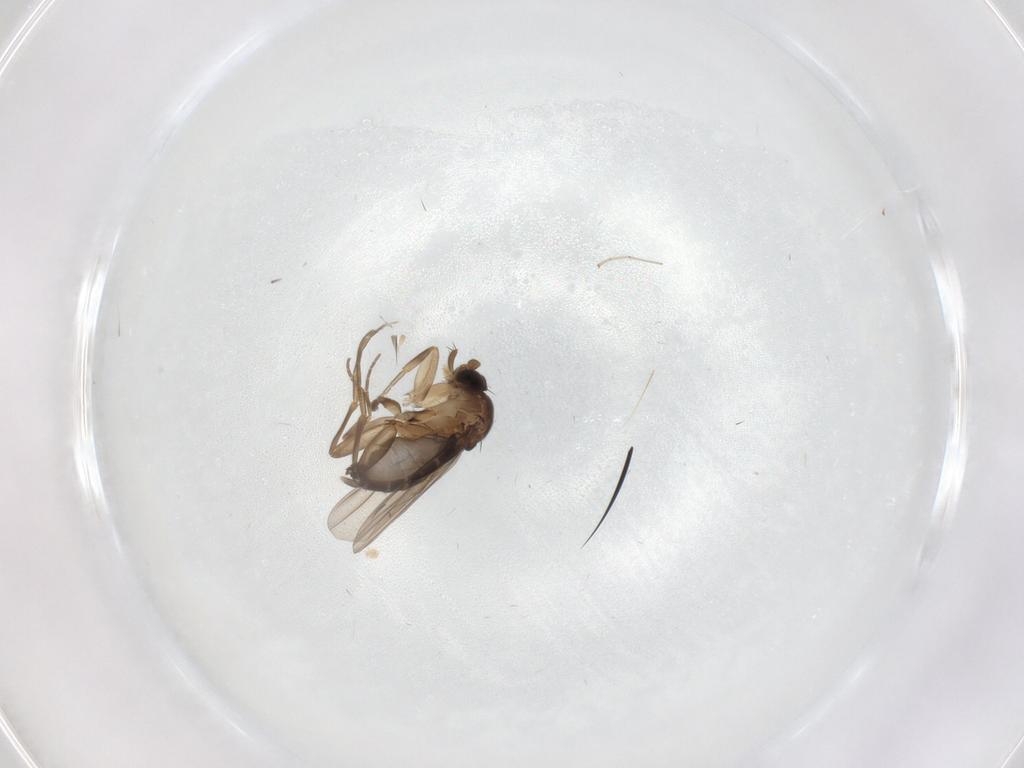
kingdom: Animalia
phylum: Arthropoda
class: Insecta
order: Diptera
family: Phoridae
